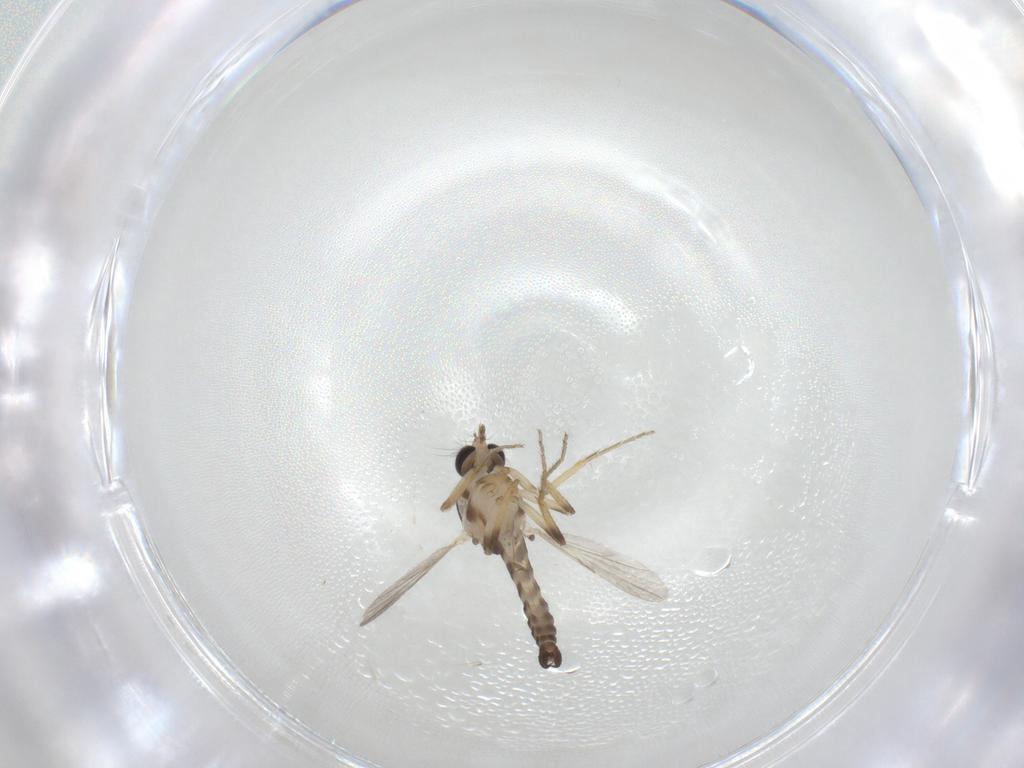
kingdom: Animalia
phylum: Arthropoda
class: Insecta
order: Diptera
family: Ceratopogonidae
